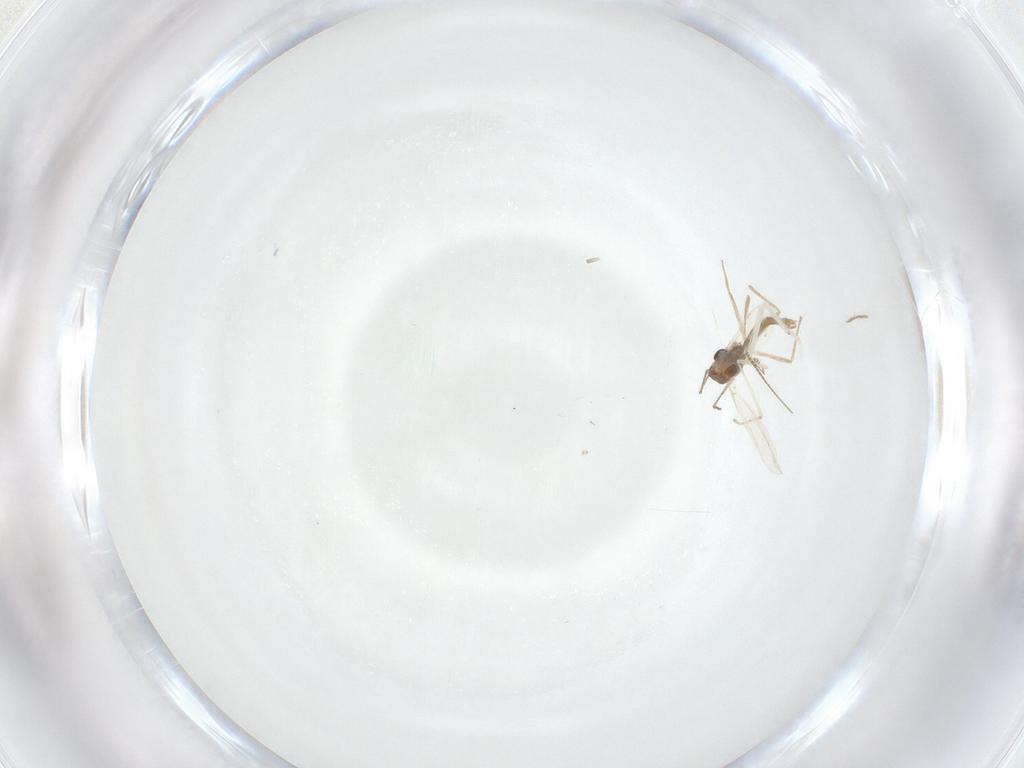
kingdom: Animalia
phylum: Arthropoda
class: Insecta
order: Diptera
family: Chironomidae
